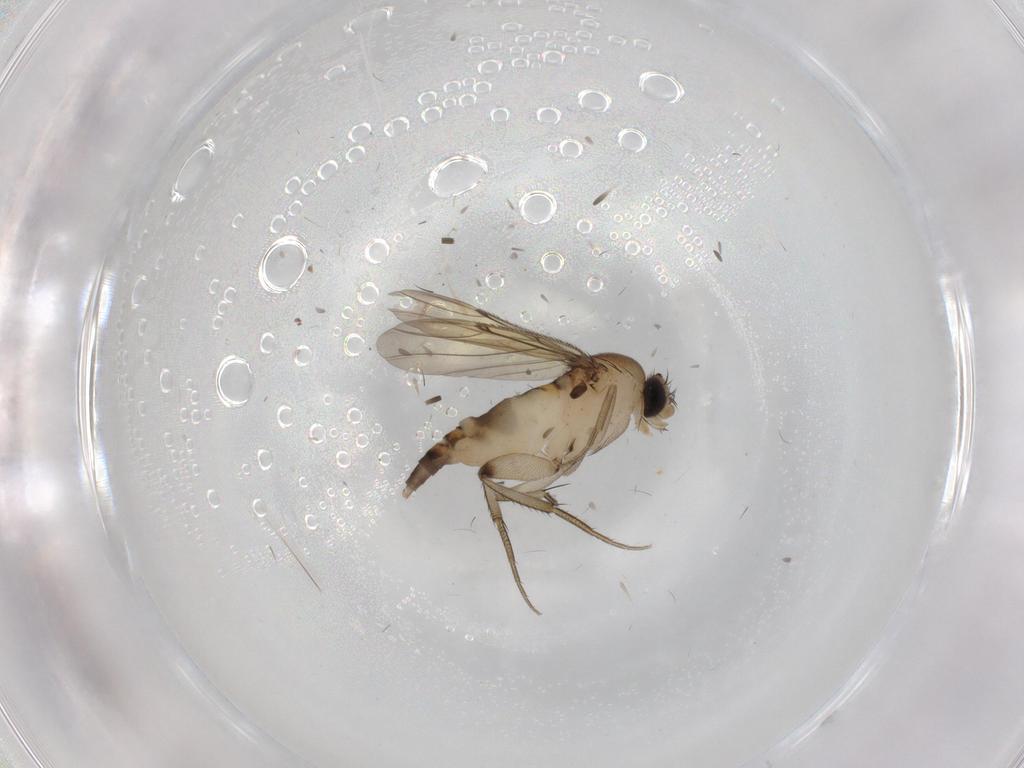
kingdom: Animalia
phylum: Arthropoda
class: Insecta
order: Diptera
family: Phoridae
